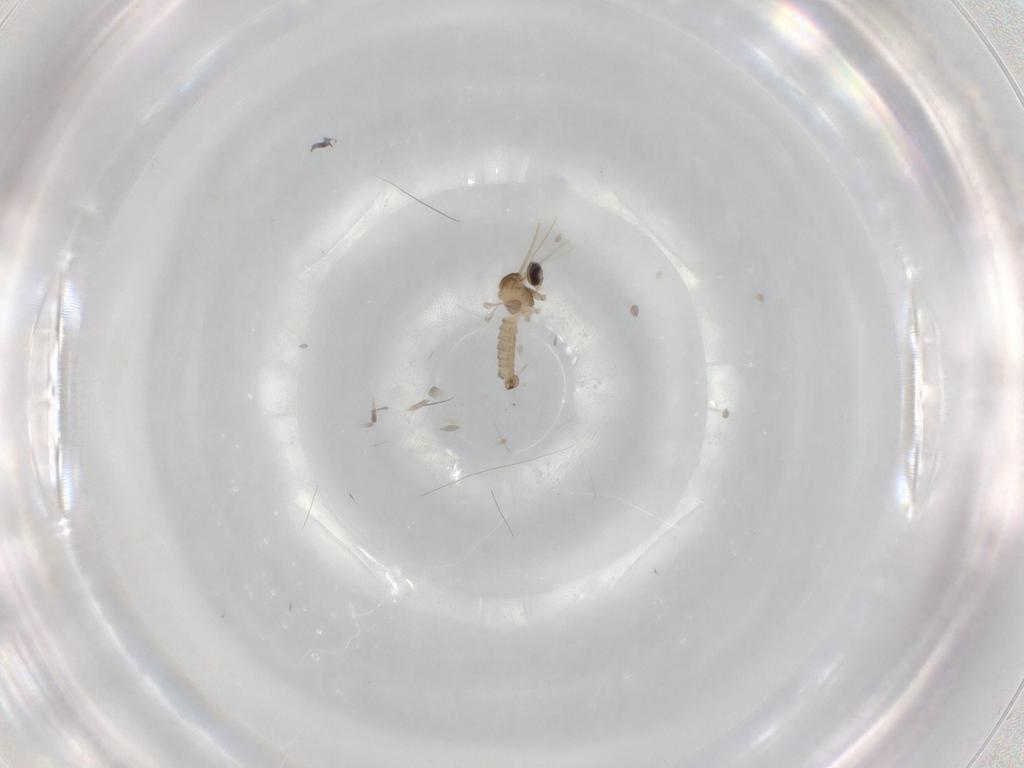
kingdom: Animalia
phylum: Arthropoda
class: Insecta
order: Diptera
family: Cecidomyiidae
